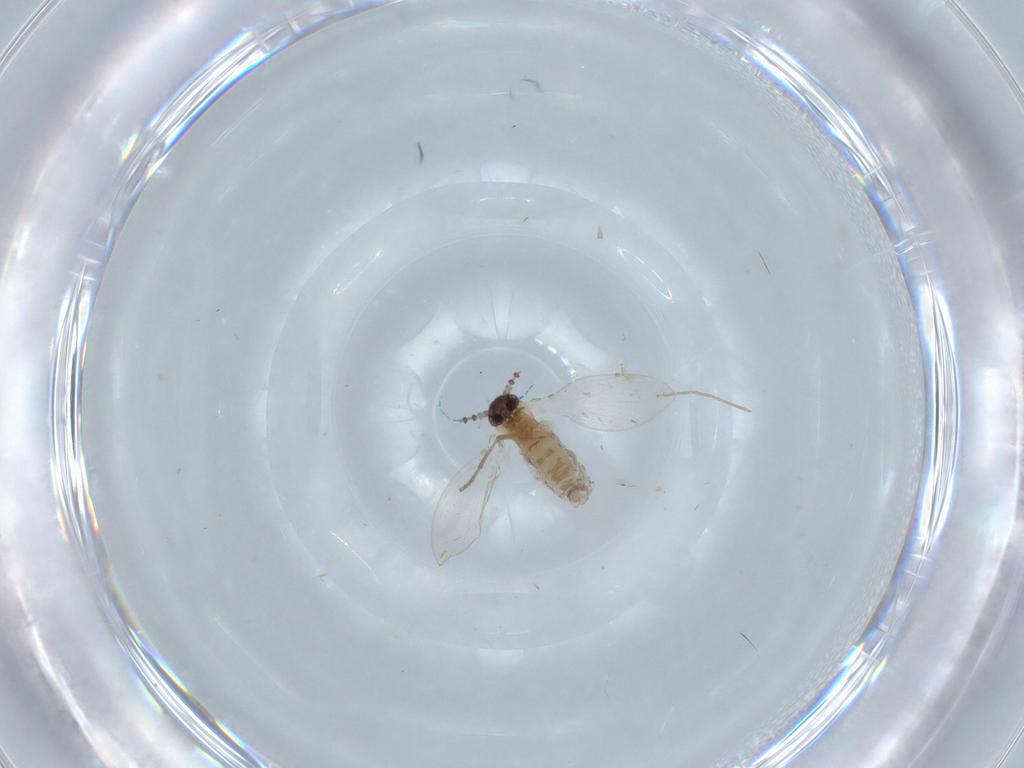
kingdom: Animalia
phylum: Arthropoda
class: Insecta
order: Diptera
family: Psychodidae
